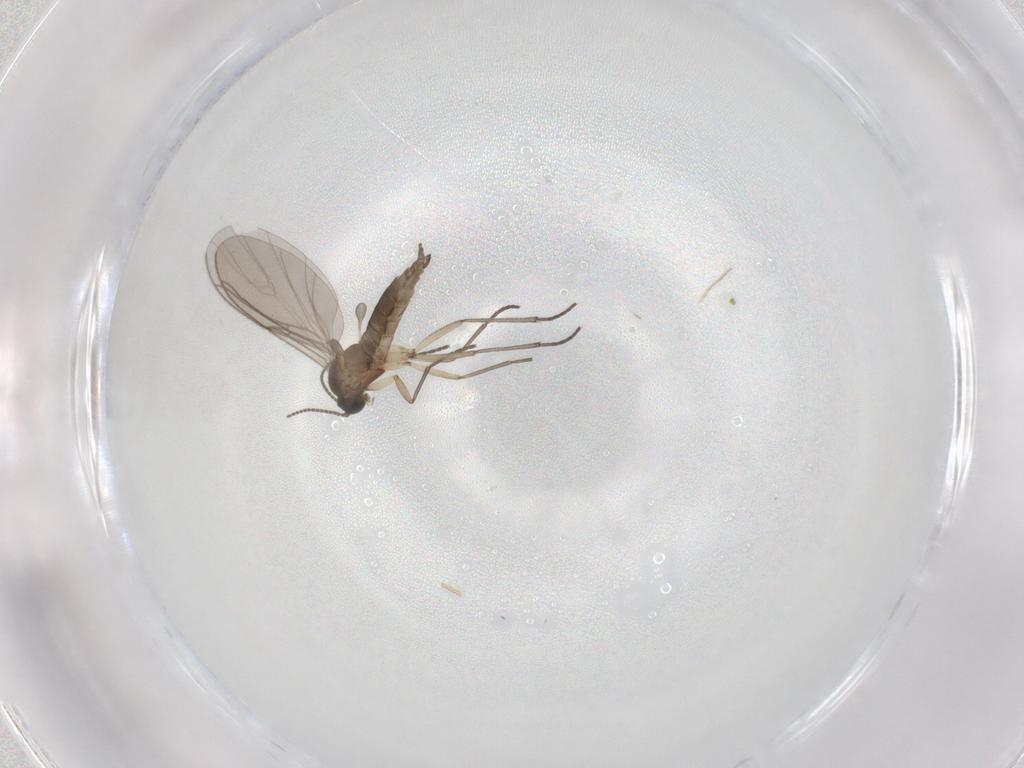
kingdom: Animalia
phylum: Arthropoda
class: Insecta
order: Diptera
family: Sciaridae
